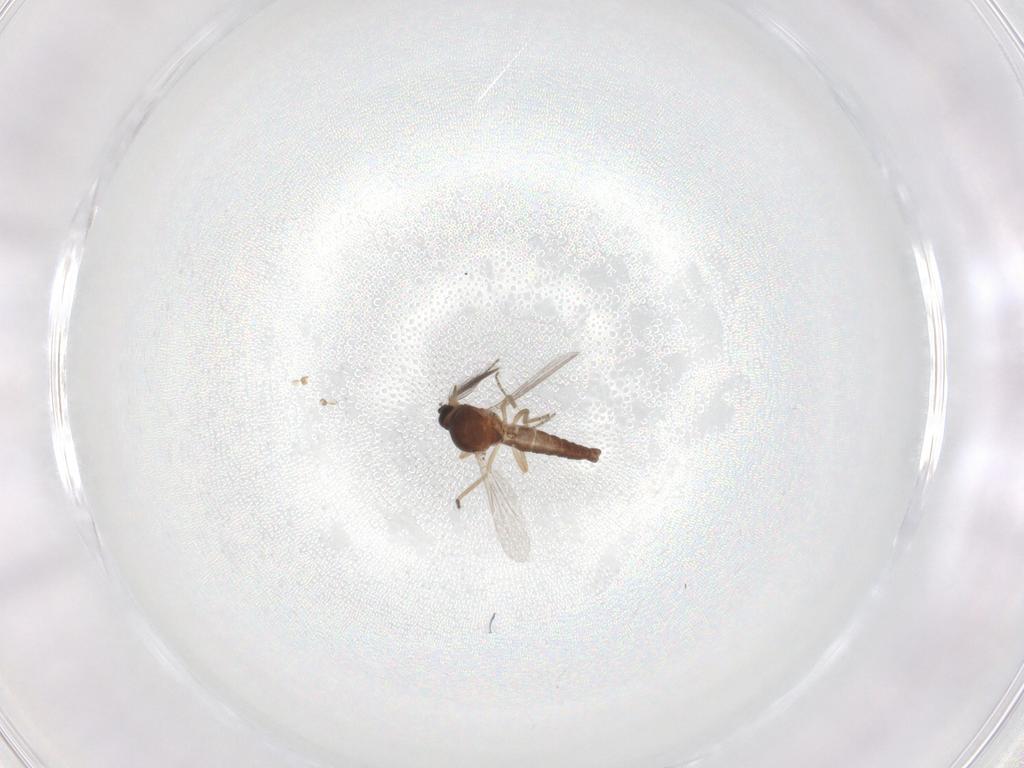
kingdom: Animalia
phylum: Arthropoda
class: Insecta
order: Diptera
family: Ceratopogonidae
